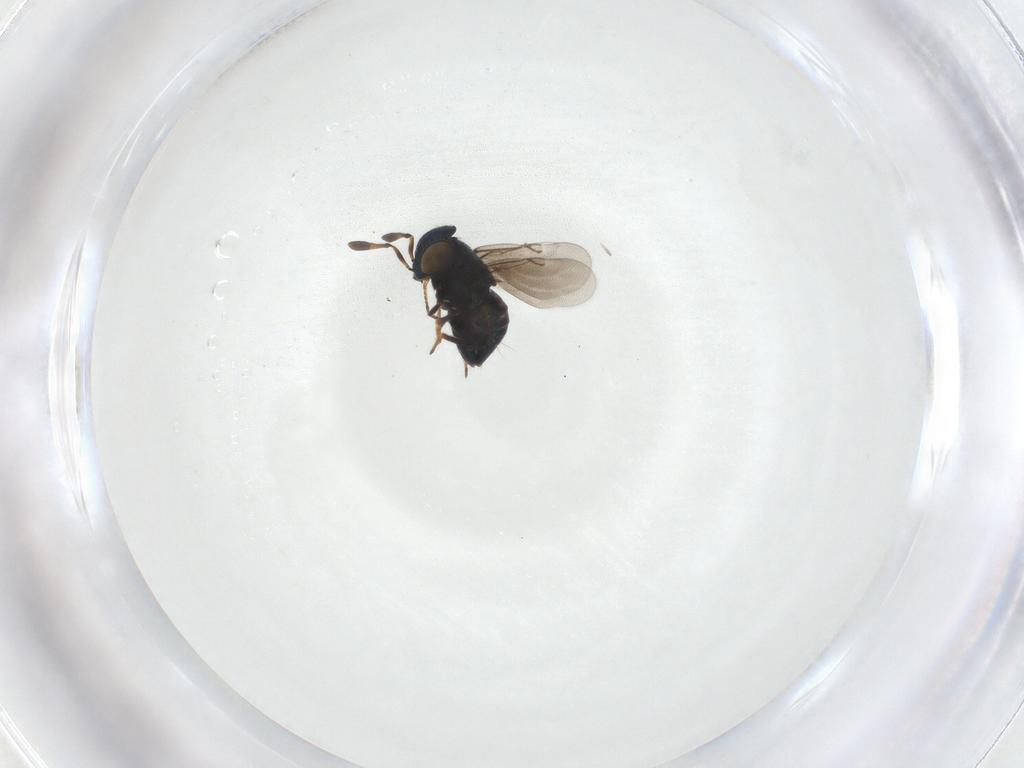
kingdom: Animalia
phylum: Arthropoda
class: Insecta
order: Hymenoptera
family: Encyrtidae
